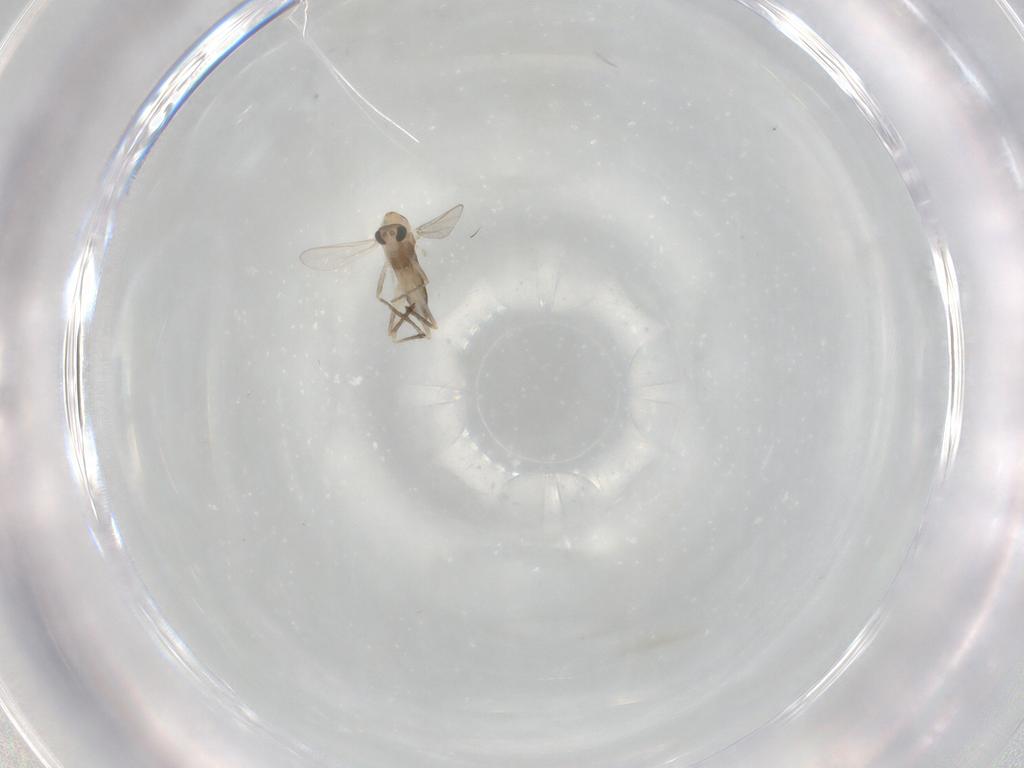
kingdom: Animalia
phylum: Arthropoda
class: Insecta
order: Diptera
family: Chironomidae
